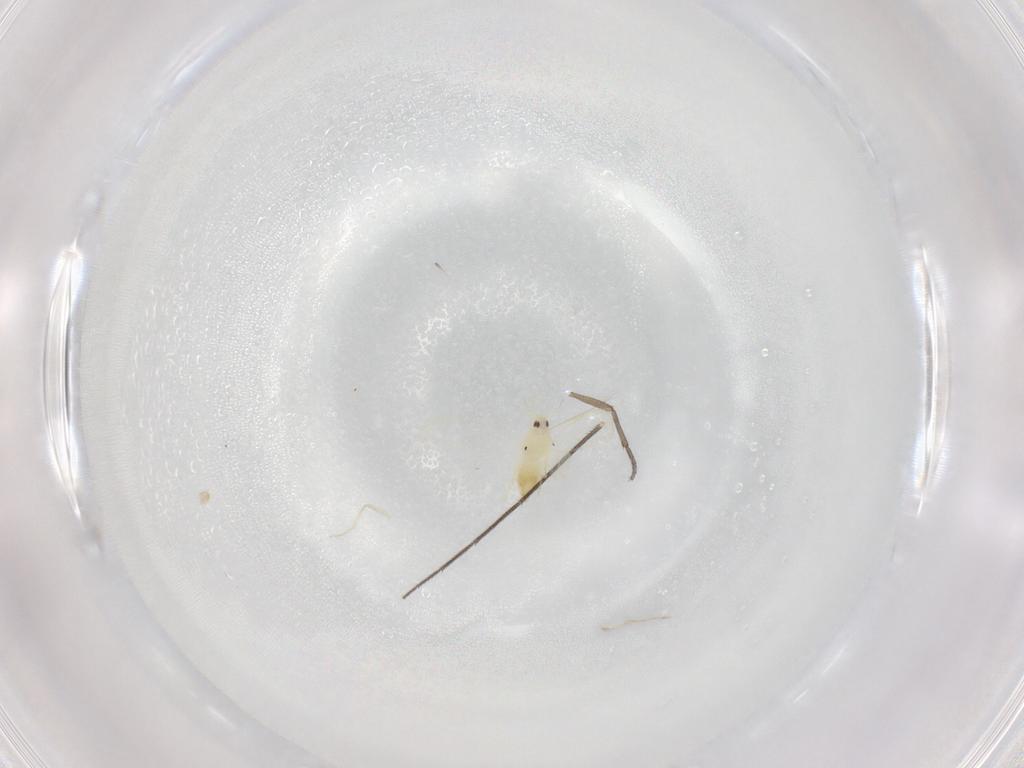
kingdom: Animalia
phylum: Arthropoda
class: Insecta
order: Hemiptera
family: Aleyrodidae
